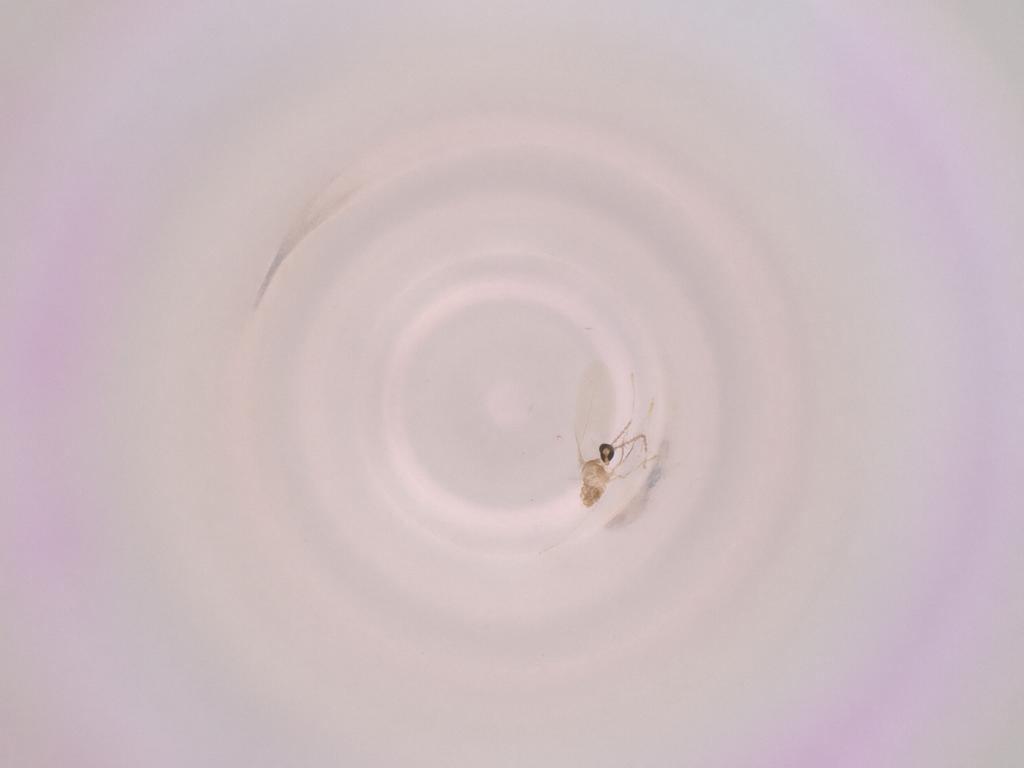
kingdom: Animalia
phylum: Arthropoda
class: Insecta
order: Diptera
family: Cecidomyiidae
